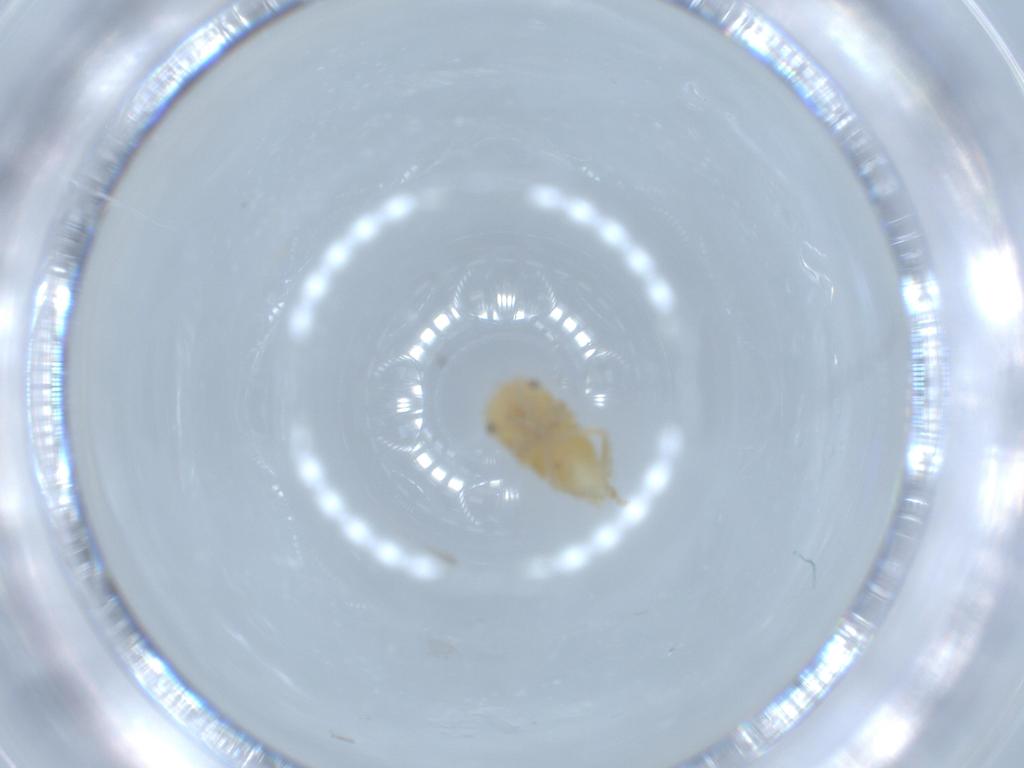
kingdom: Animalia
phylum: Arthropoda
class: Insecta
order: Hemiptera
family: Cicadellidae
